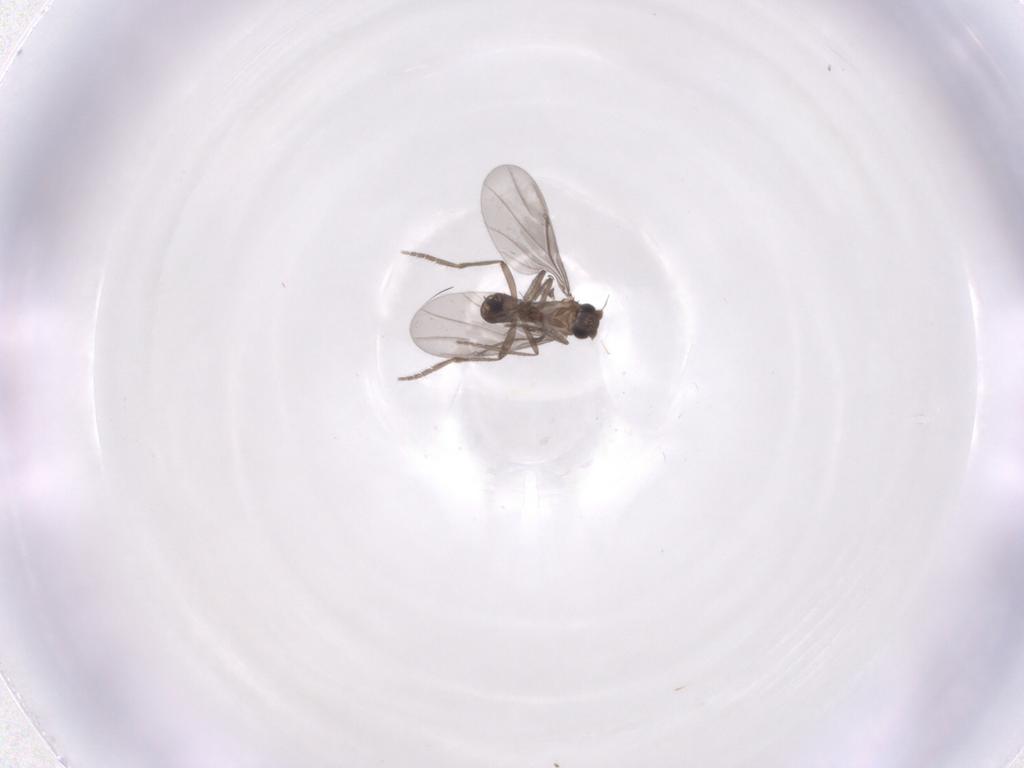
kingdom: Animalia
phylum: Arthropoda
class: Insecta
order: Diptera
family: Phoridae
